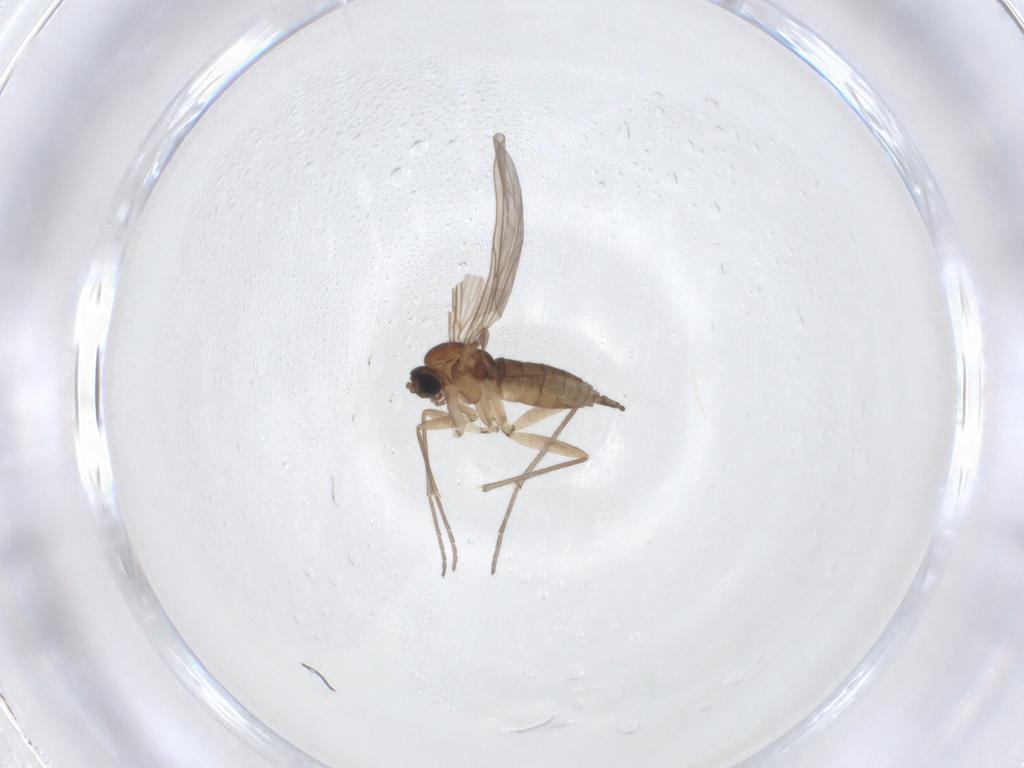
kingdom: Animalia
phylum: Arthropoda
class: Insecta
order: Diptera
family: Sciaridae
